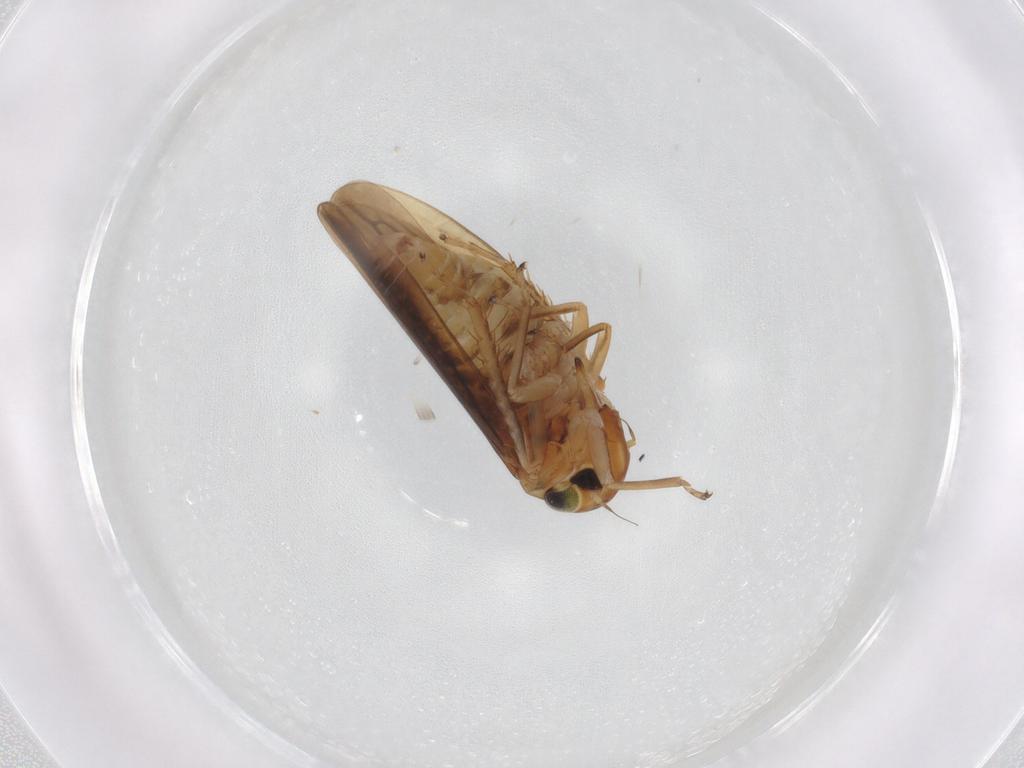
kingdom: Animalia
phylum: Arthropoda
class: Insecta
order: Hemiptera
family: Cicadellidae
